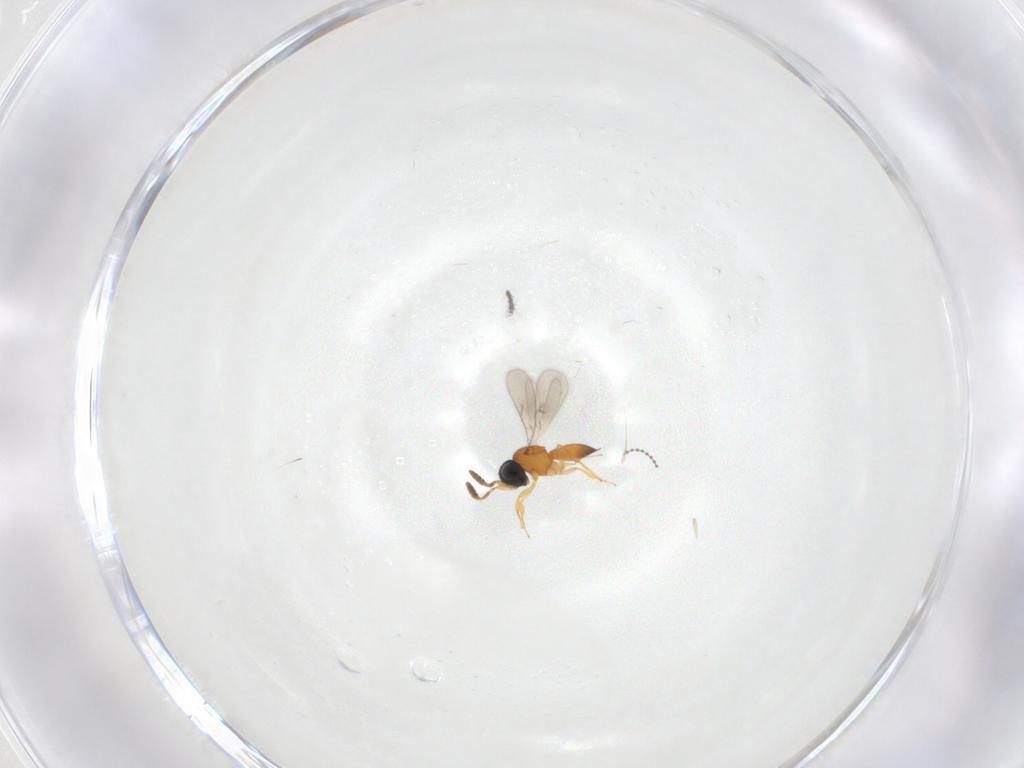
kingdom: Animalia
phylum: Arthropoda
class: Insecta
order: Hymenoptera
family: Scelionidae
